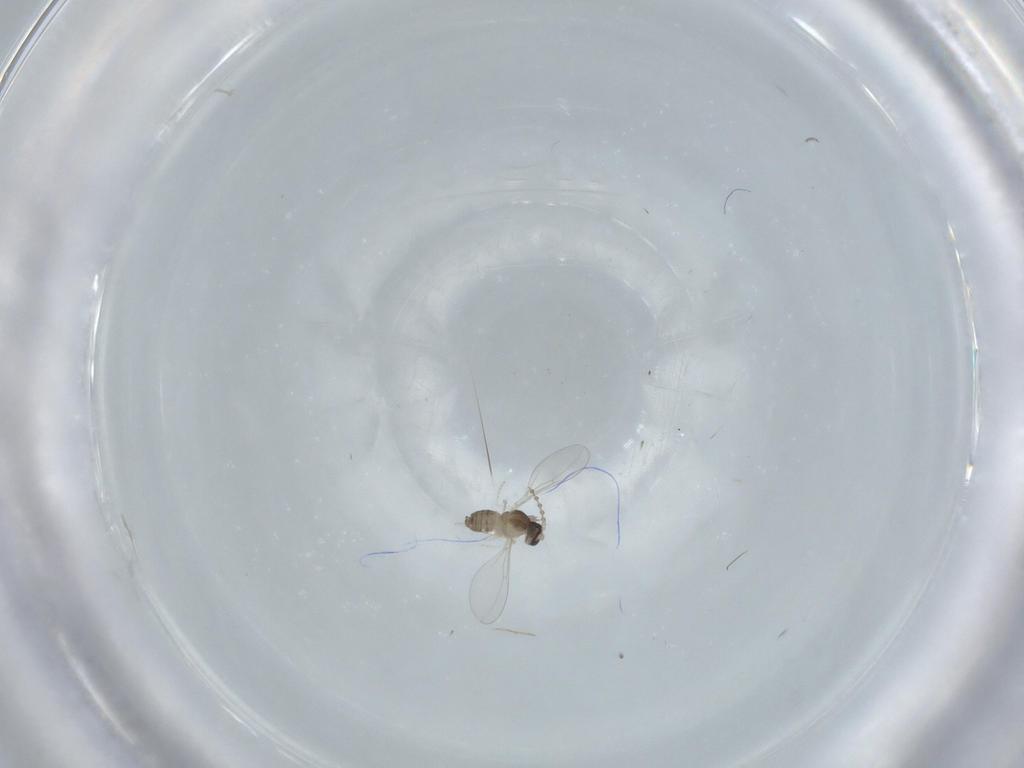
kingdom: Animalia
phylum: Arthropoda
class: Insecta
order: Diptera
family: Cecidomyiidae
